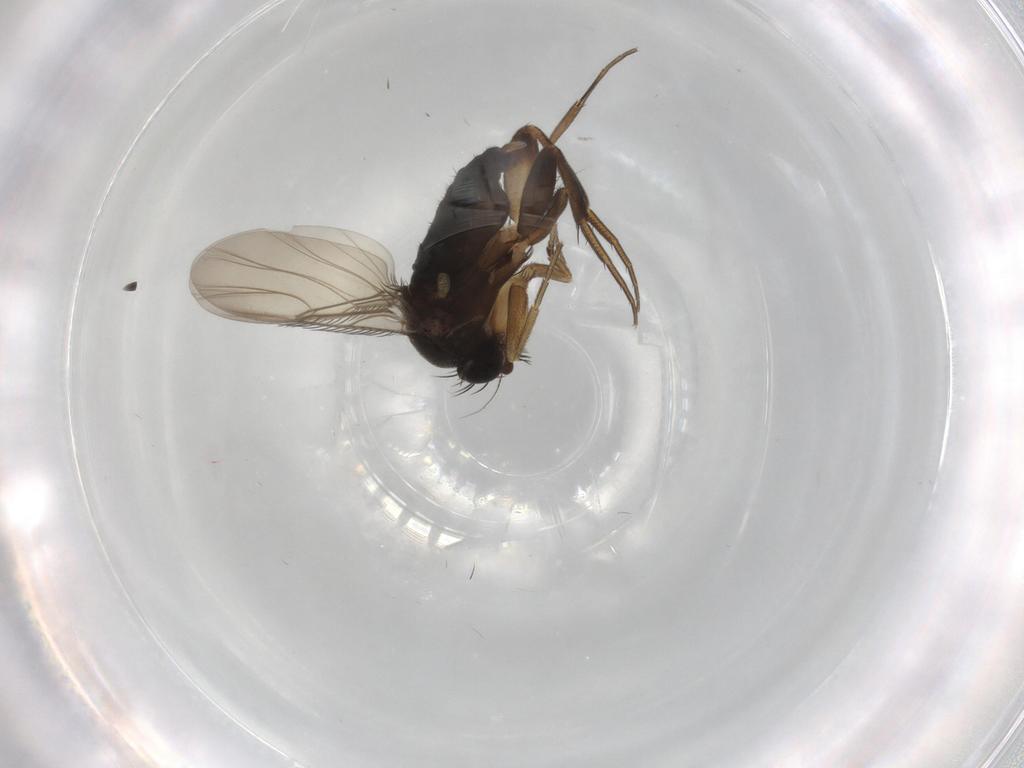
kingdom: Animalia
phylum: Arthropoda
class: Insecta
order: Diptera
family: Phoridae
